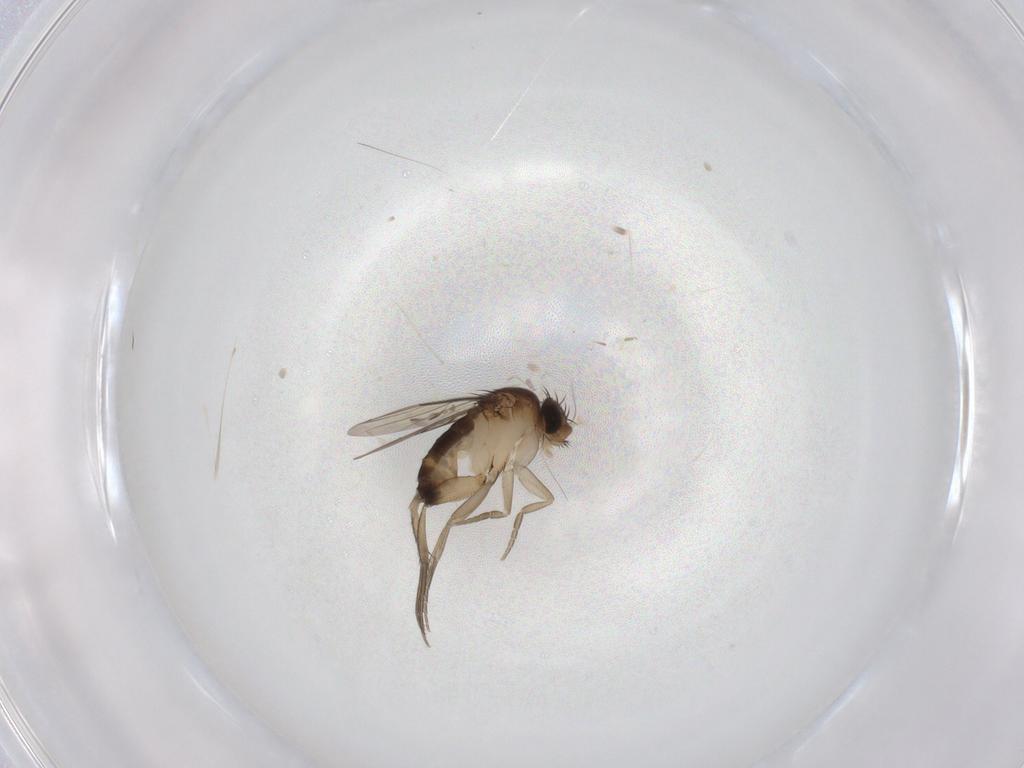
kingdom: Animalia
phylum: Arthropoda
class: Insecta
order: Diptera
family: Phoridae
